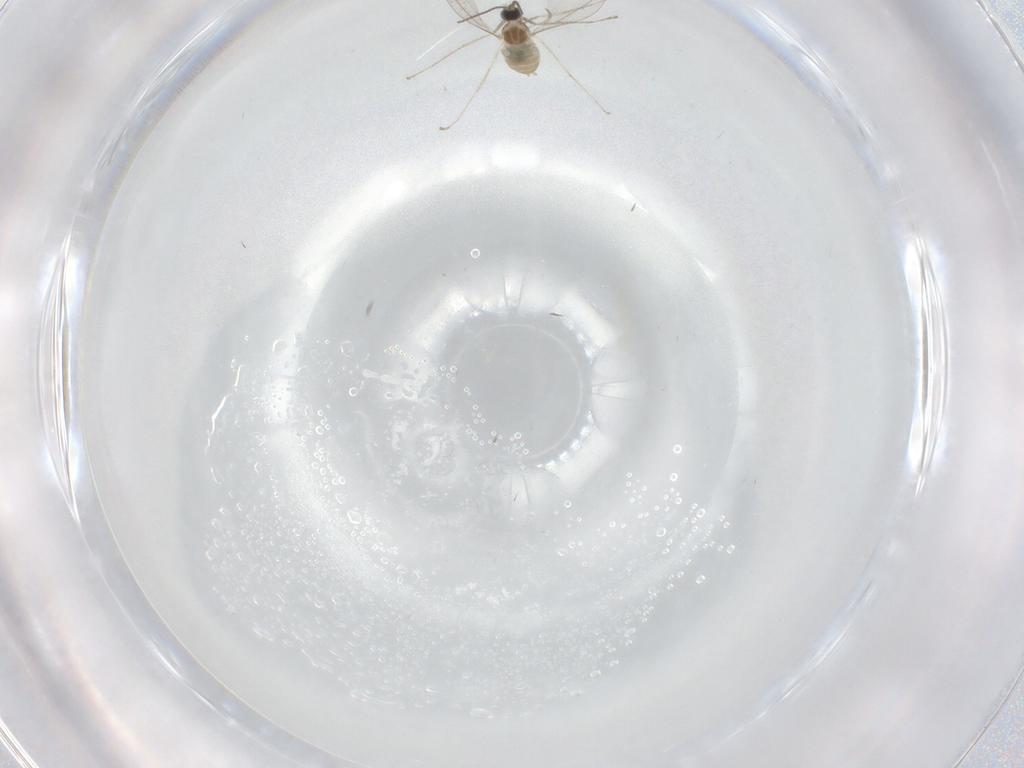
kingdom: Animalia
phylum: Arthropoda
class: Insecta
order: Diptera
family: Cecidomyiidae
